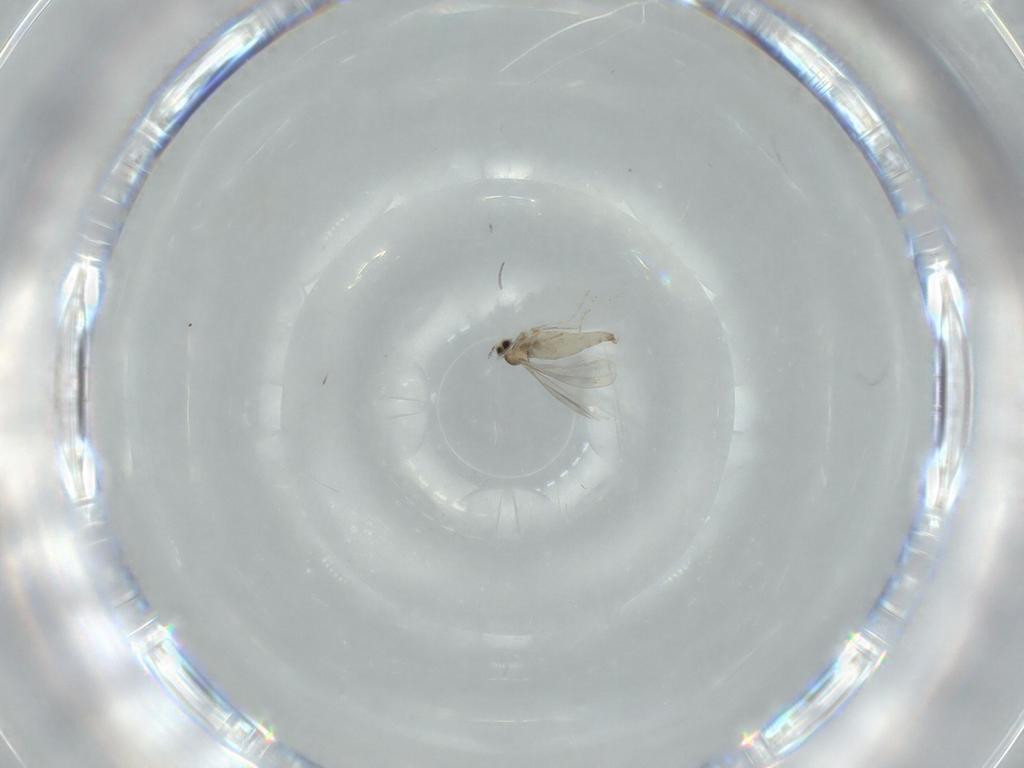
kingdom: Animalia
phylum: Arthropoda
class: Insecta
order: Diptera
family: Cecidomyiidae
